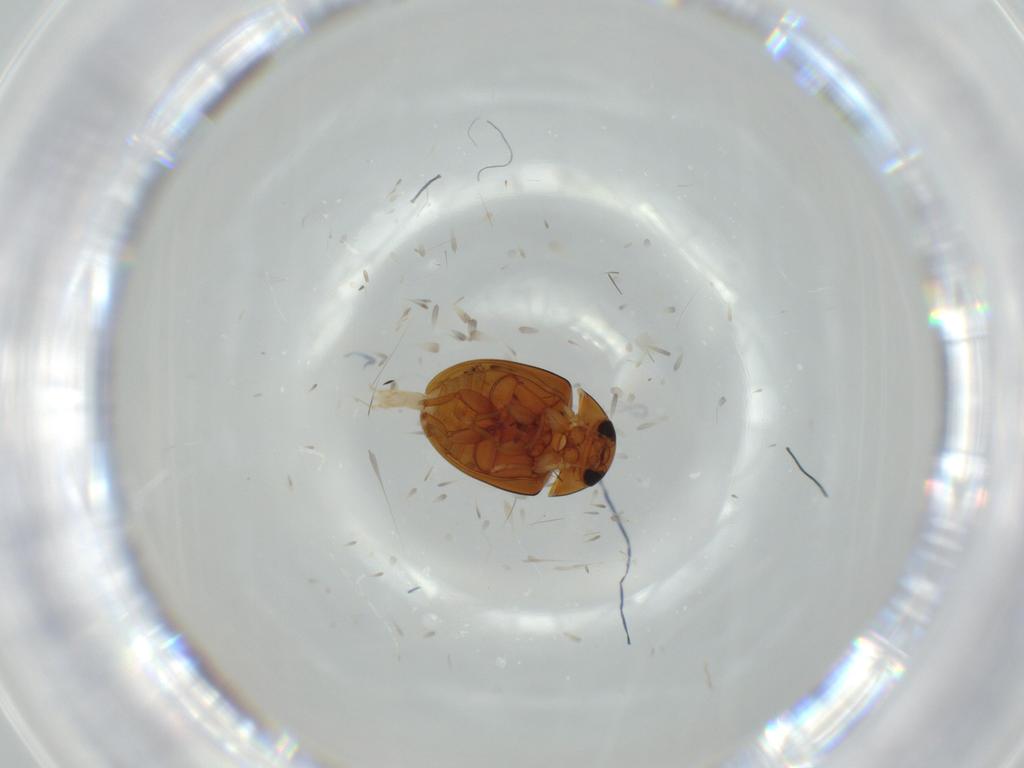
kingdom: Animalia
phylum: Arthropoda
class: Insecta
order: Coleoptera
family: Phalacridae
